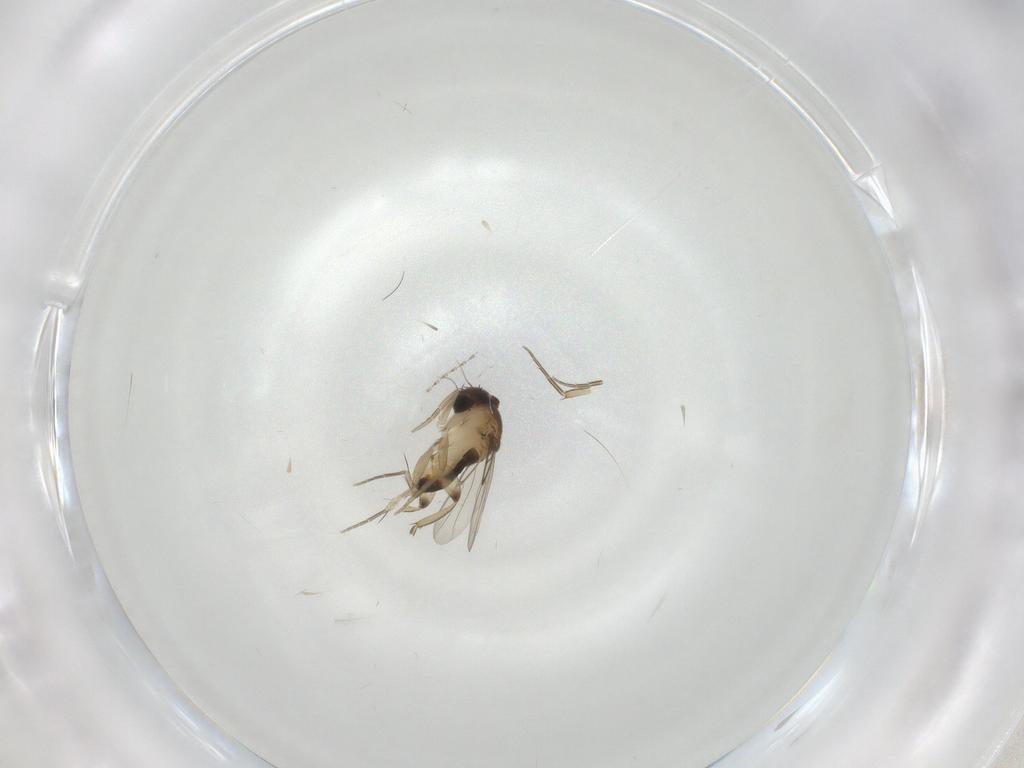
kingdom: Animalia
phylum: Arthropoda
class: Insecta
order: Diptera
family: Phoridae
